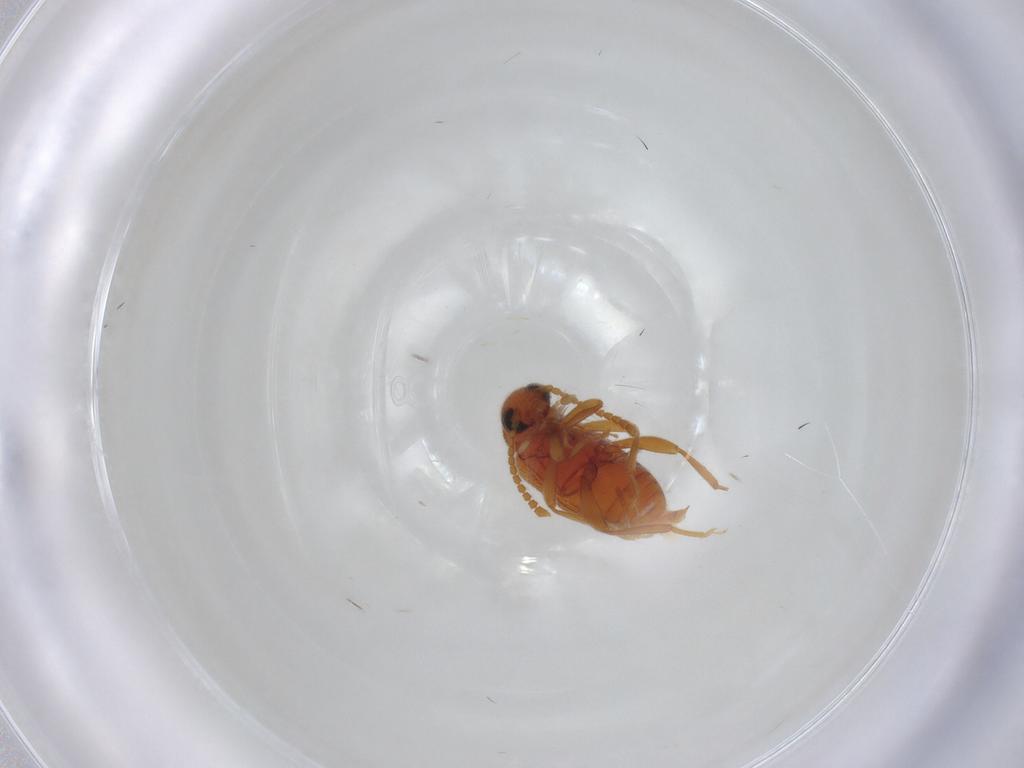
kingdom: Animalia
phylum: Arthropoda
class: Insecta
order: Coleoptera
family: Aderidae
